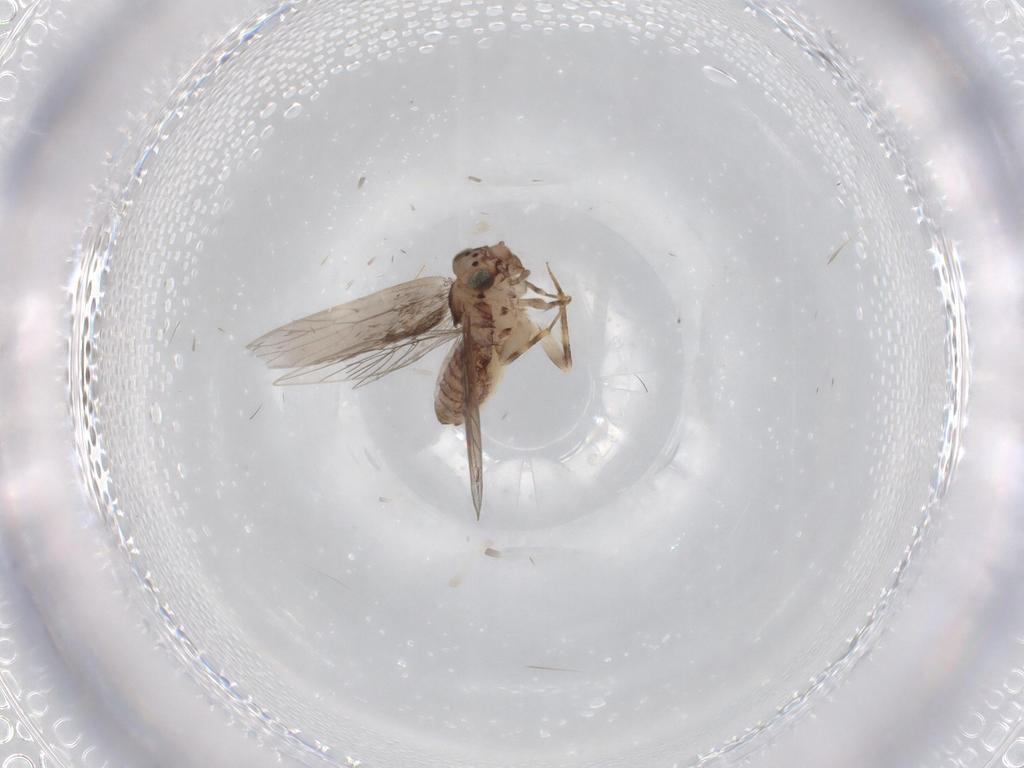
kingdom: Animalia
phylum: Arthropoda
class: Insecta
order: Psocodea
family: Lepidopsocidae
